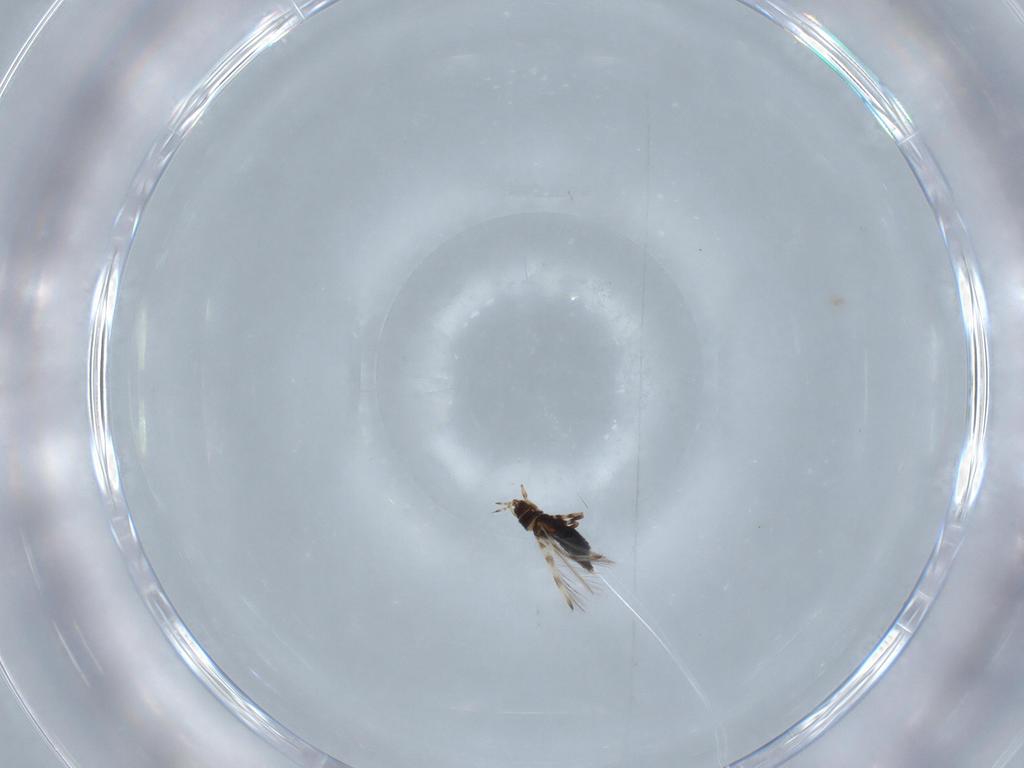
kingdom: Animalia
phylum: Arthropoda
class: Insecta
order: Thysanoptera
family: Thripidae
